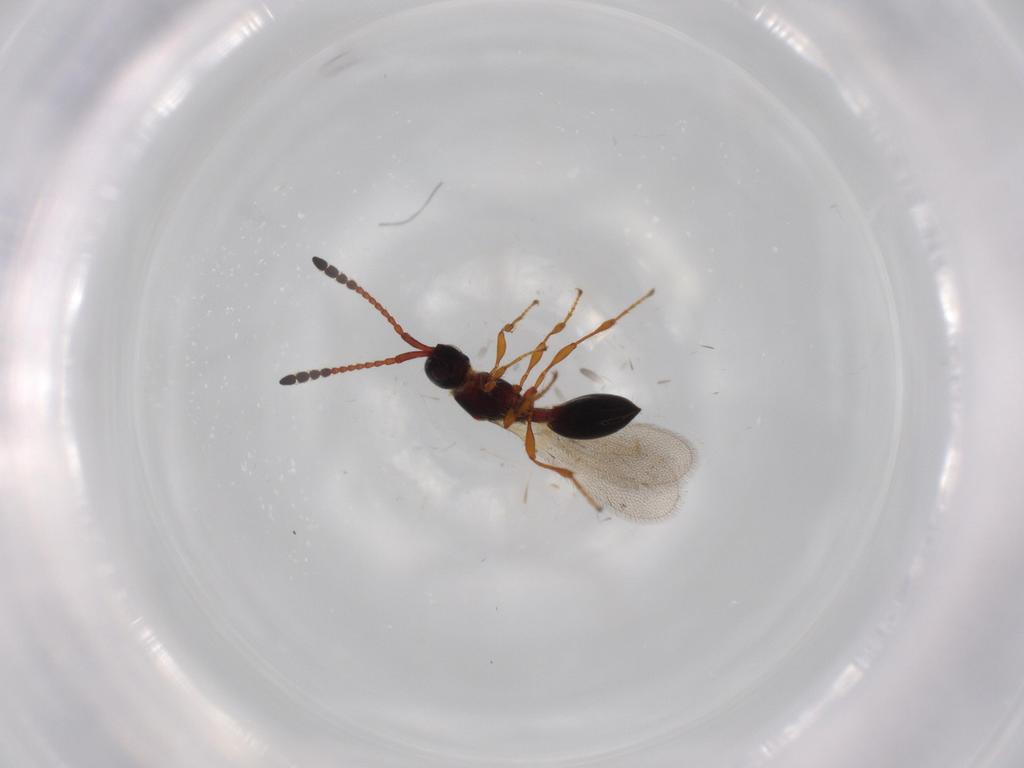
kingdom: Animalia
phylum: Arthropoda
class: Insecta
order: Hymenoptera
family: Diapriidae
